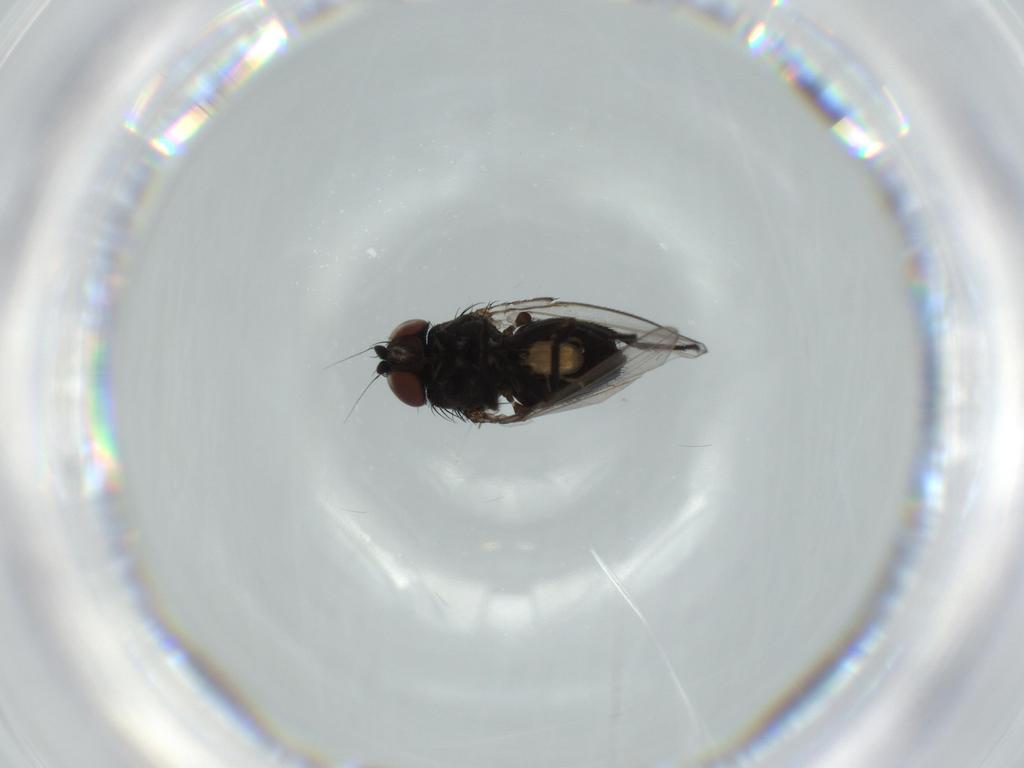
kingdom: Animalia
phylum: Arthropoda
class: Insecta
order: Diptera
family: Milichiidae
